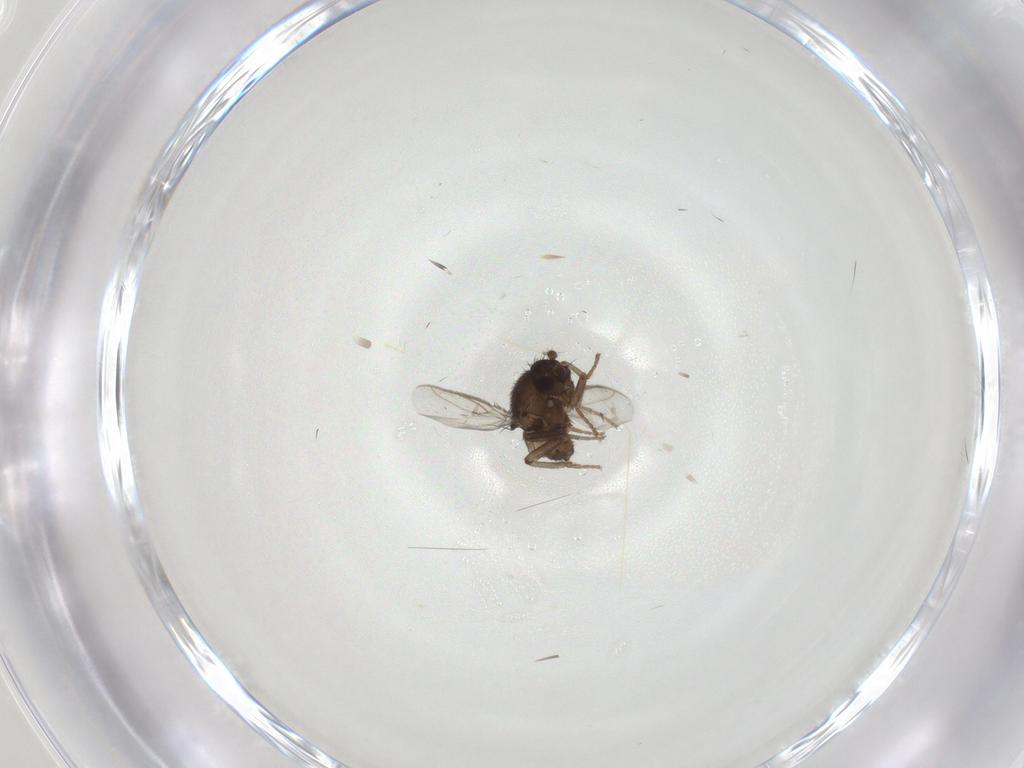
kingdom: Animalia
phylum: Arthropoda
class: Insecta
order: Diptera
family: Sphaeroceridae
